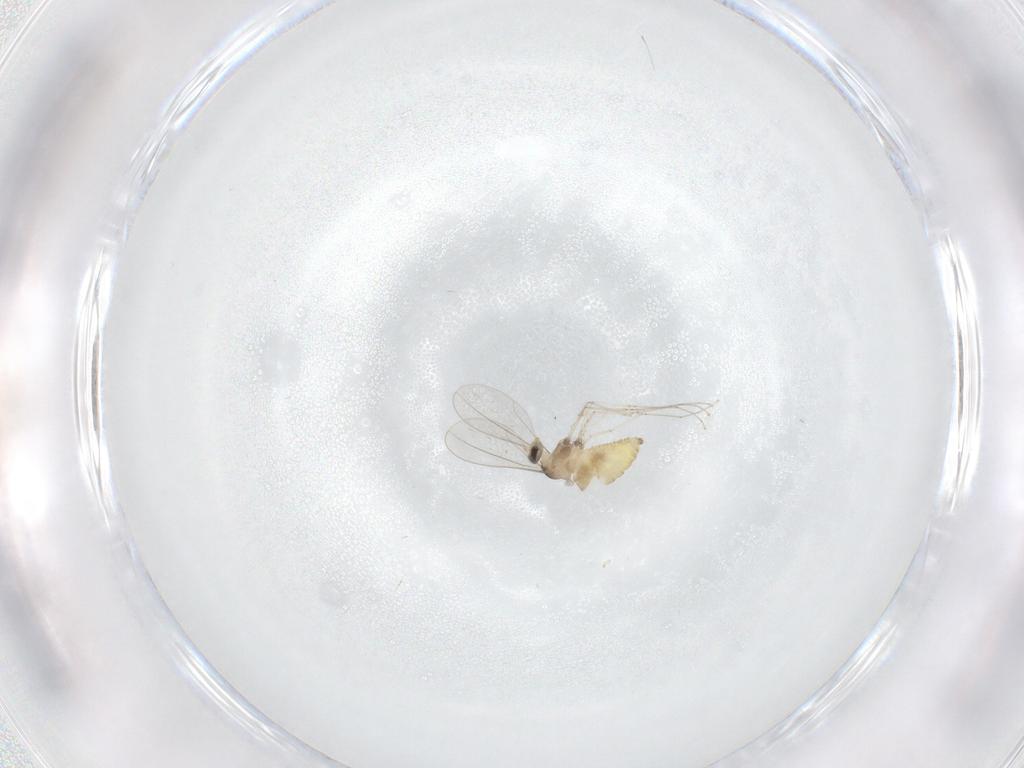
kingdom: Animalia
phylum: Arthropoda
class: Insecta
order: Diptera
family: Cecidomyiidae
